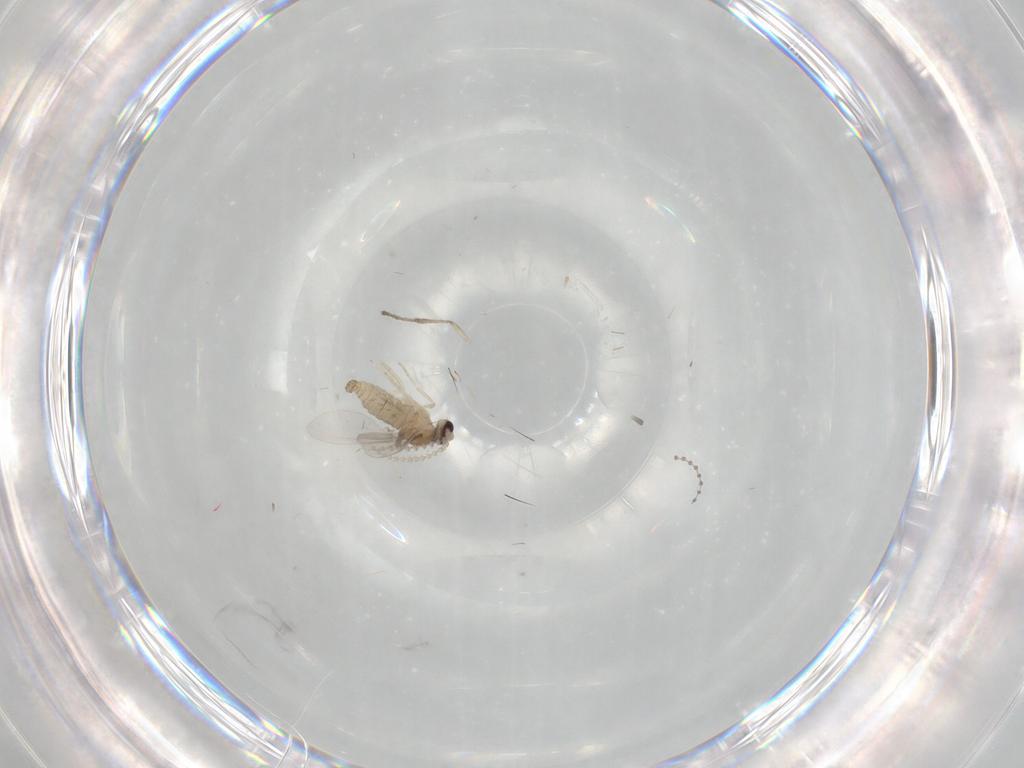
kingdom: Animalia
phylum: Arthropoda
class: Insecta
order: Diptera
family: Cecidomyiidae
